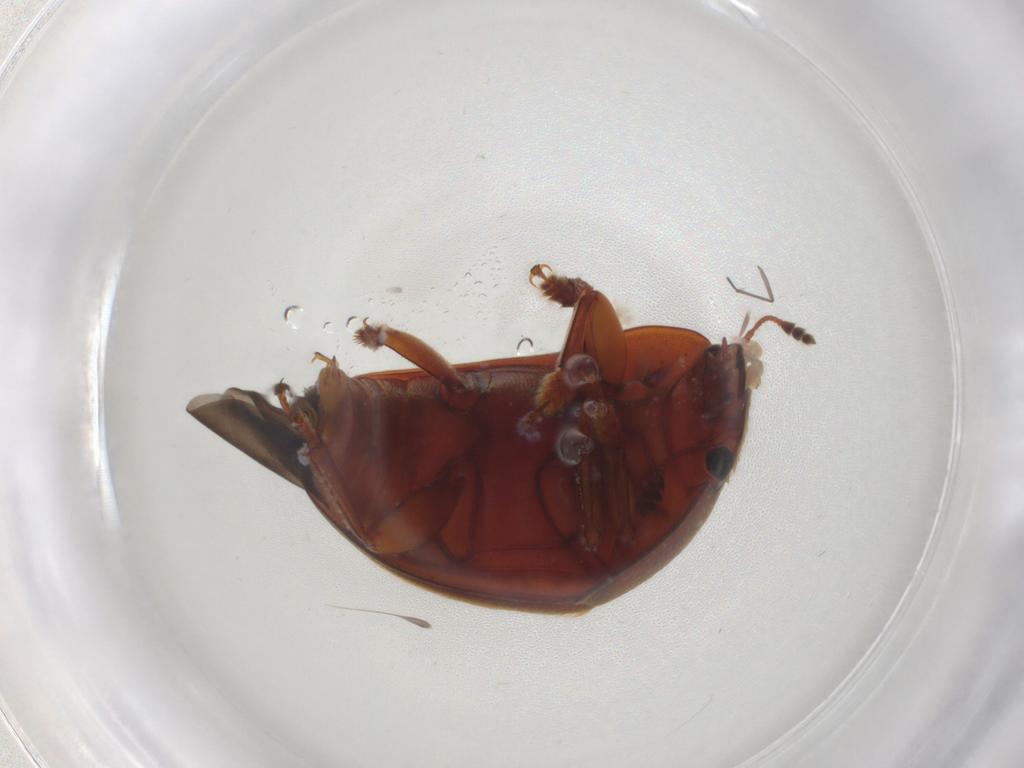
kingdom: Animalia
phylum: Arthropoda
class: Insecta
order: Coleoptera
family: Nitidulidae
